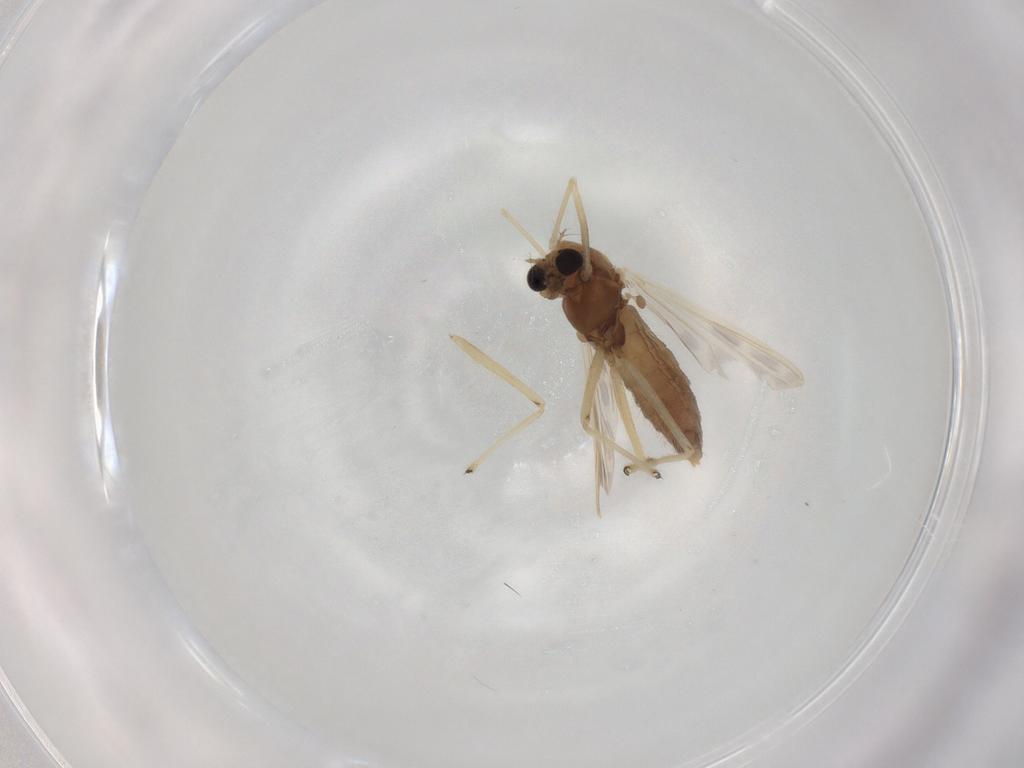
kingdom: Animalia
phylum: Arthropoda
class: Insecta
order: Diptera
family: Chironomidae
